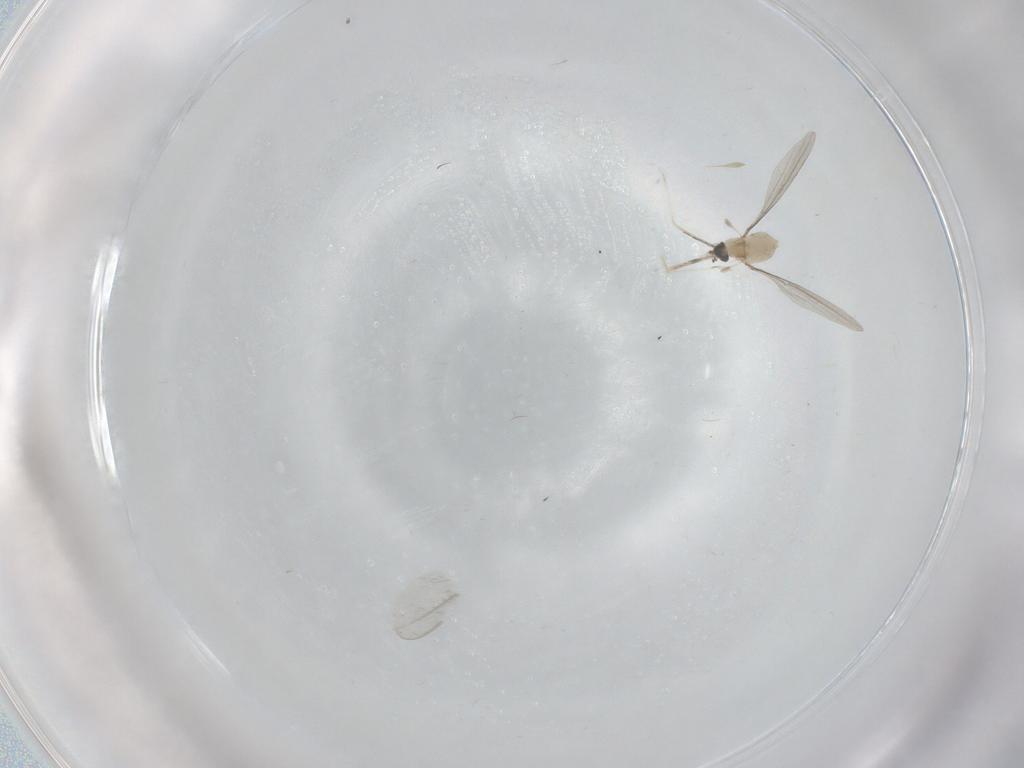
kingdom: Animalia
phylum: Arthropoda
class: Insecta
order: Diptera
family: Cecidomyiidae
